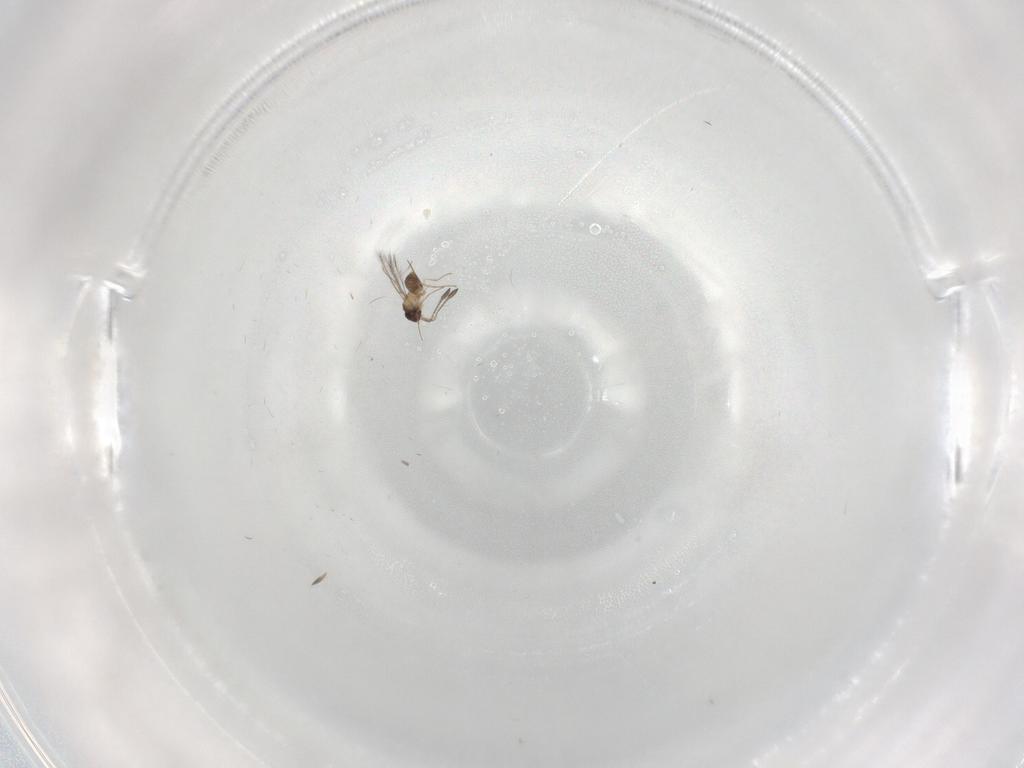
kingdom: Animalia
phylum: Arthropoda
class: Insecta
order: Hymenoptera
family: Mymaridae
